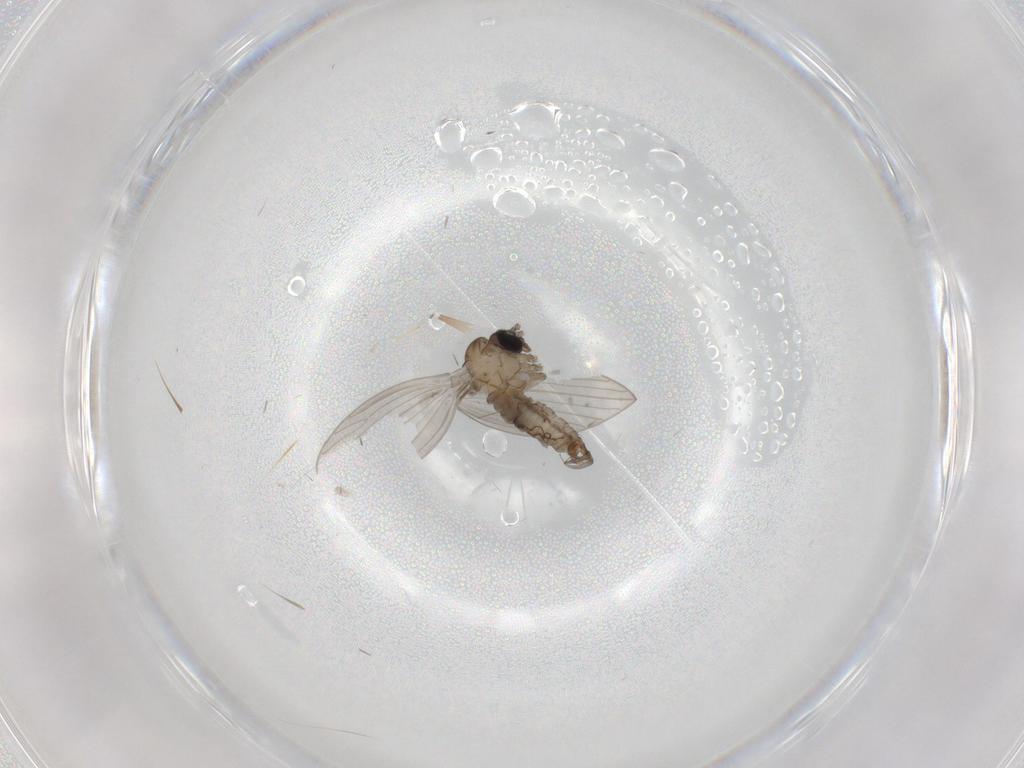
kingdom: Animalia
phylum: Arthropoda
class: Insecta
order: Diptera
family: Psychodidae
